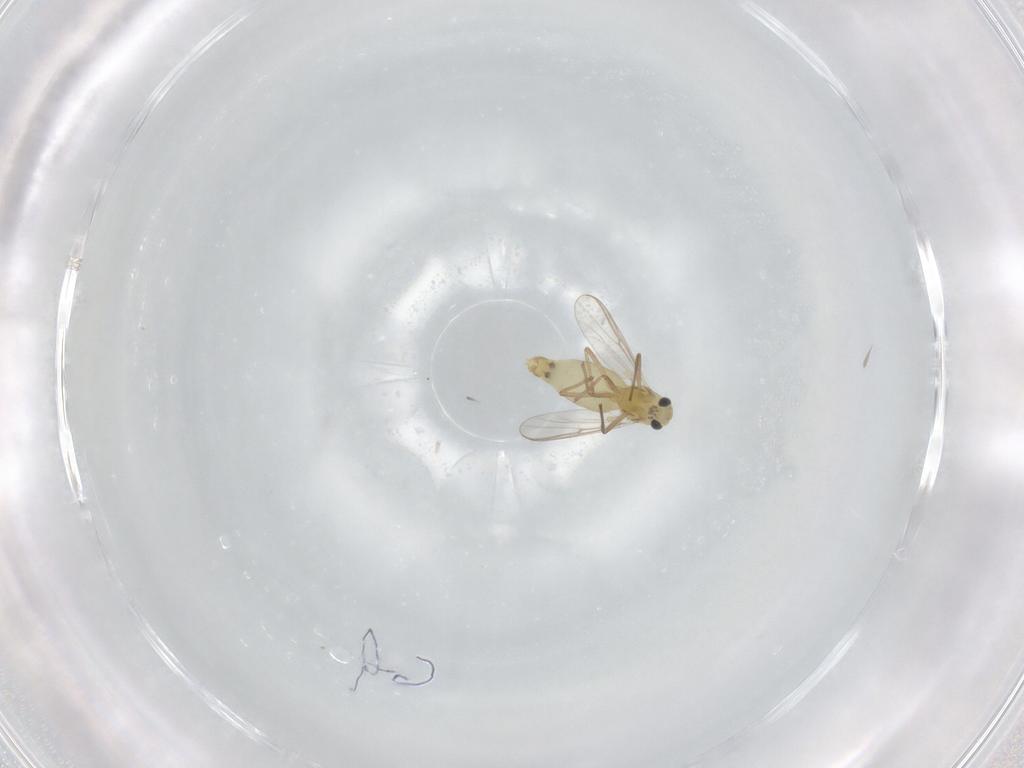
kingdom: Animalia
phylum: Arthropoda
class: Insecta
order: Diptera
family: Chironomidae
